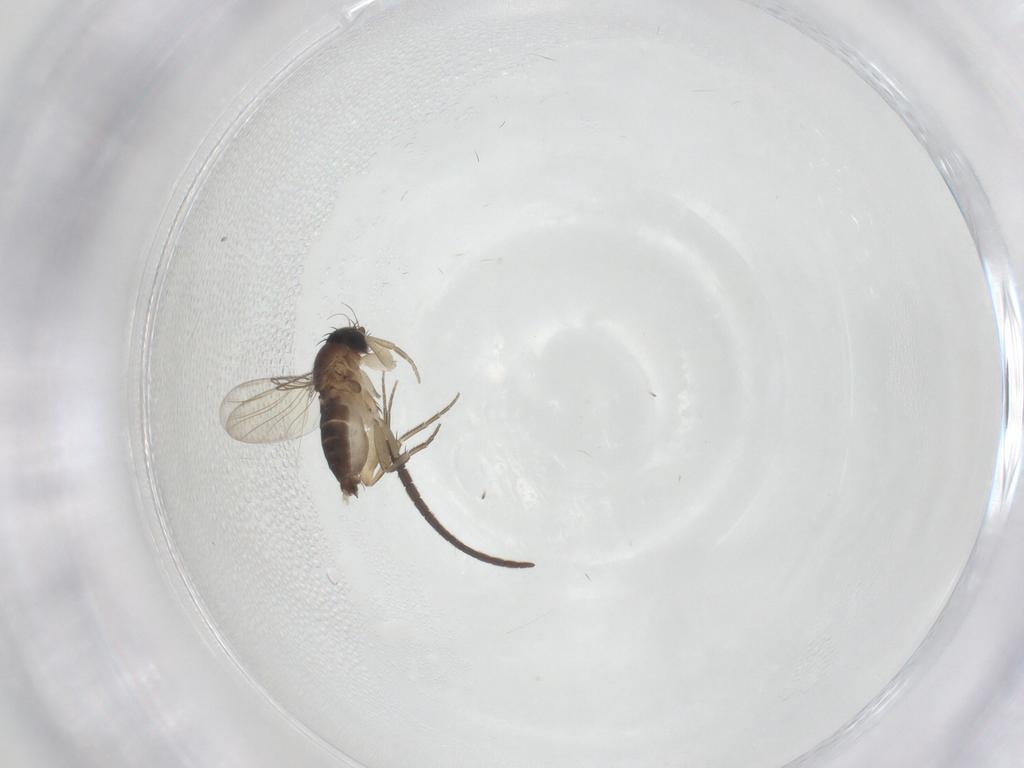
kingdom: Animalia
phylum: Arthropoda
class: Insecta
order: Diptera
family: Phoridae
